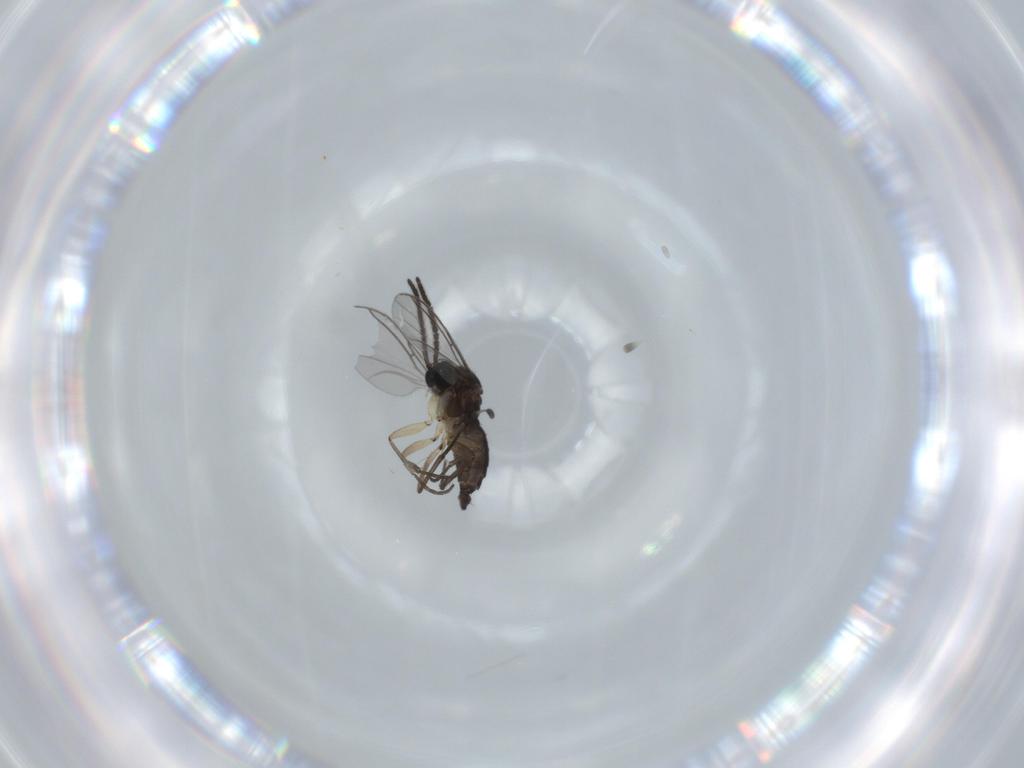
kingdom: Animalia
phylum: Arthropoda
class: Insecta
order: Diptera
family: Sciaridae
